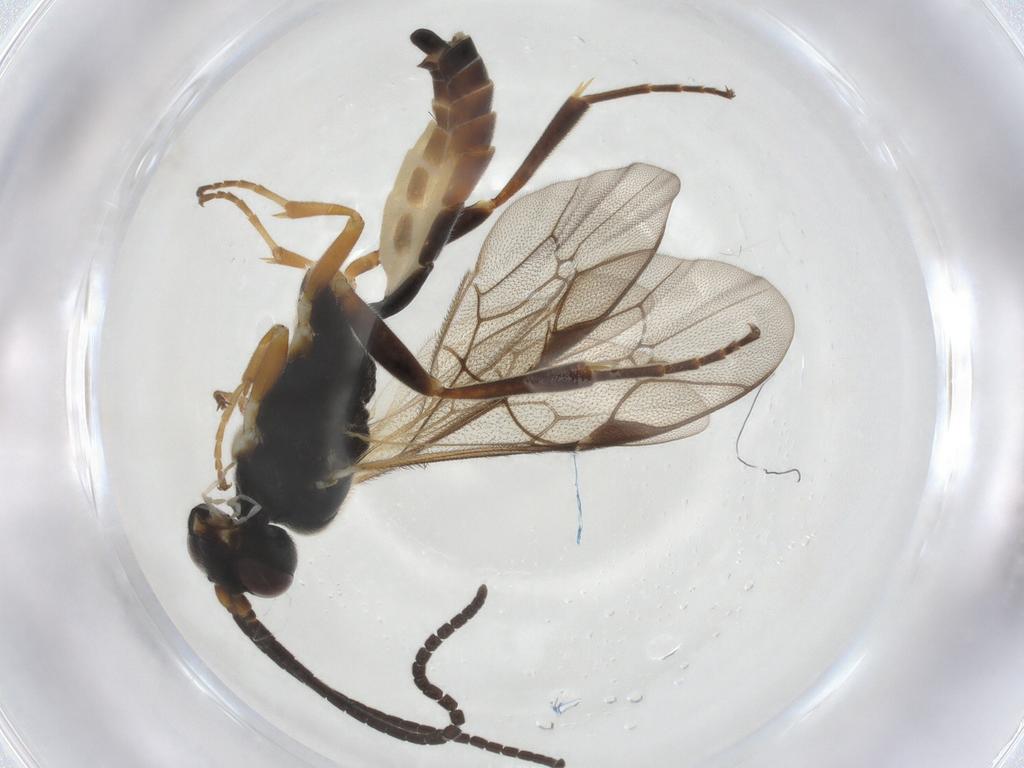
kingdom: Animalia
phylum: Arthropoda
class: Insecta
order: Hymenoptera
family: Ichneumonidae
